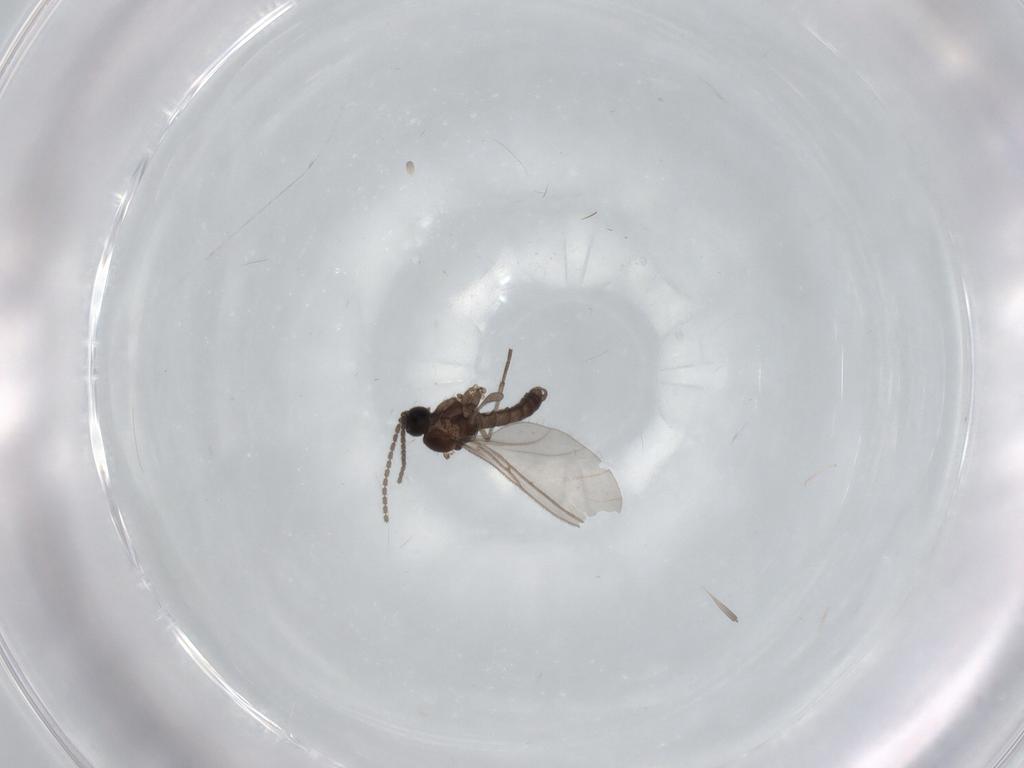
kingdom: Animalia
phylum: Arthropoda
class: Insecta
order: Diptera
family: Sciaridae
